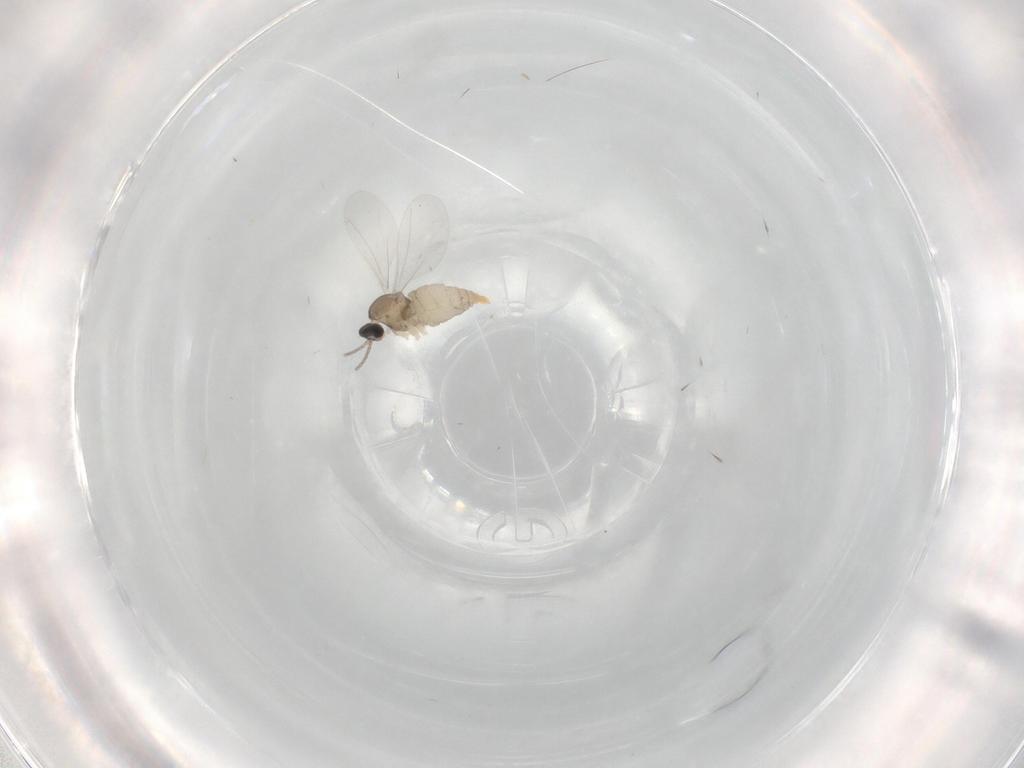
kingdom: Animalia
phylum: Arthropoda
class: Insecta
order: Diptera
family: Cecidomyiidae
